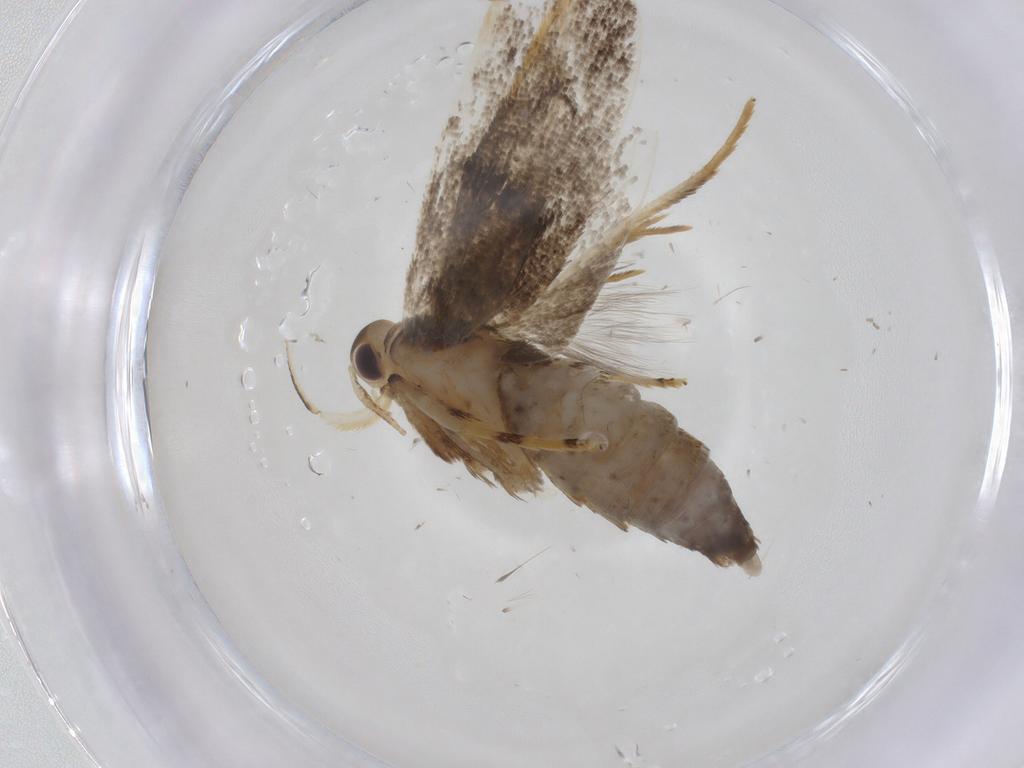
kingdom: Animalia
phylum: Arthropoda
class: Insecta
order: Lepidoptera
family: Lecithoceridae
